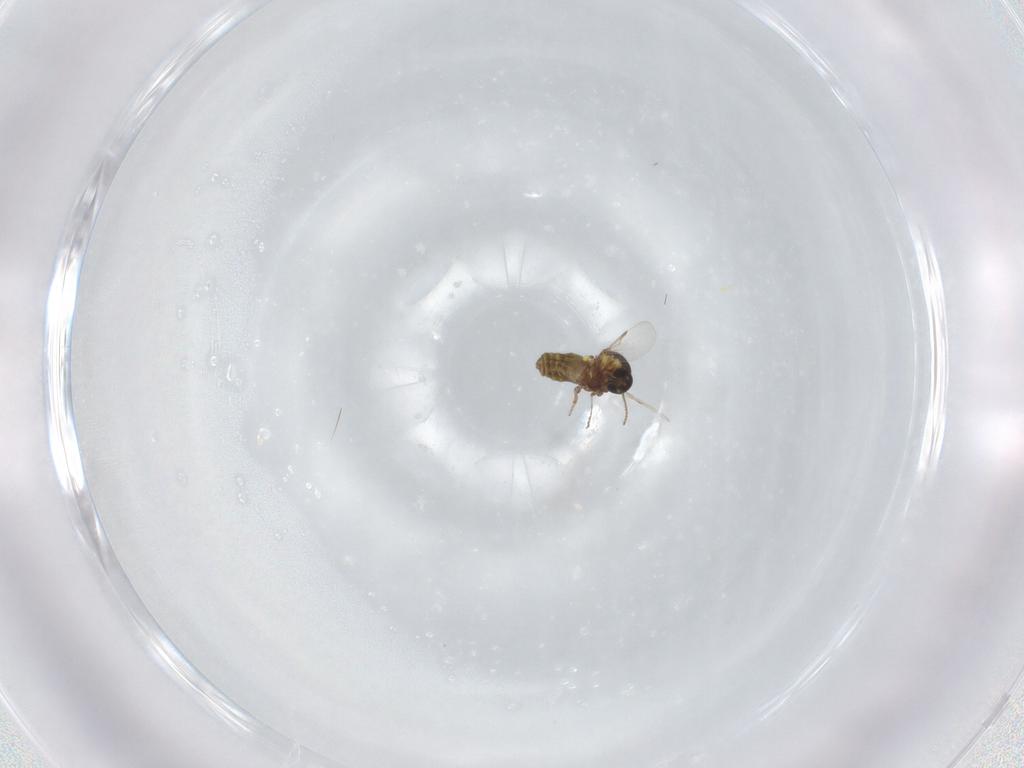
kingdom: Animalia
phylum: Arthropoda
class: Insecta
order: Diptera
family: Ceratopogonidae
